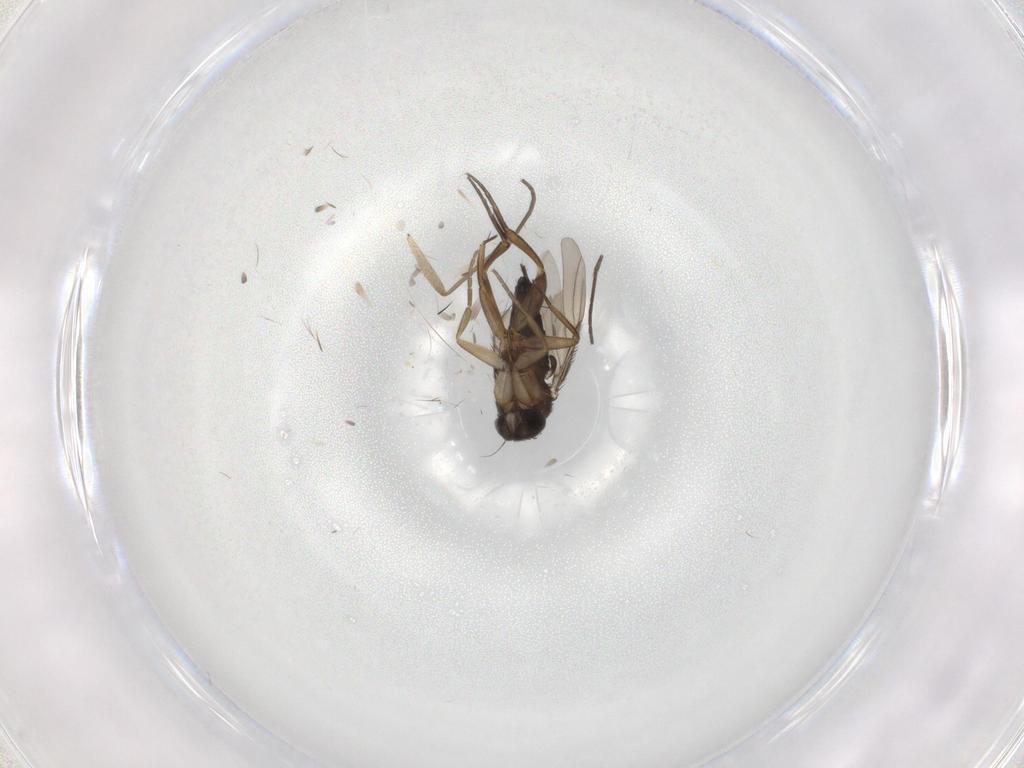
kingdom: Animalia
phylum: Arthropoda
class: Insecta
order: Diptera
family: Phoridae
